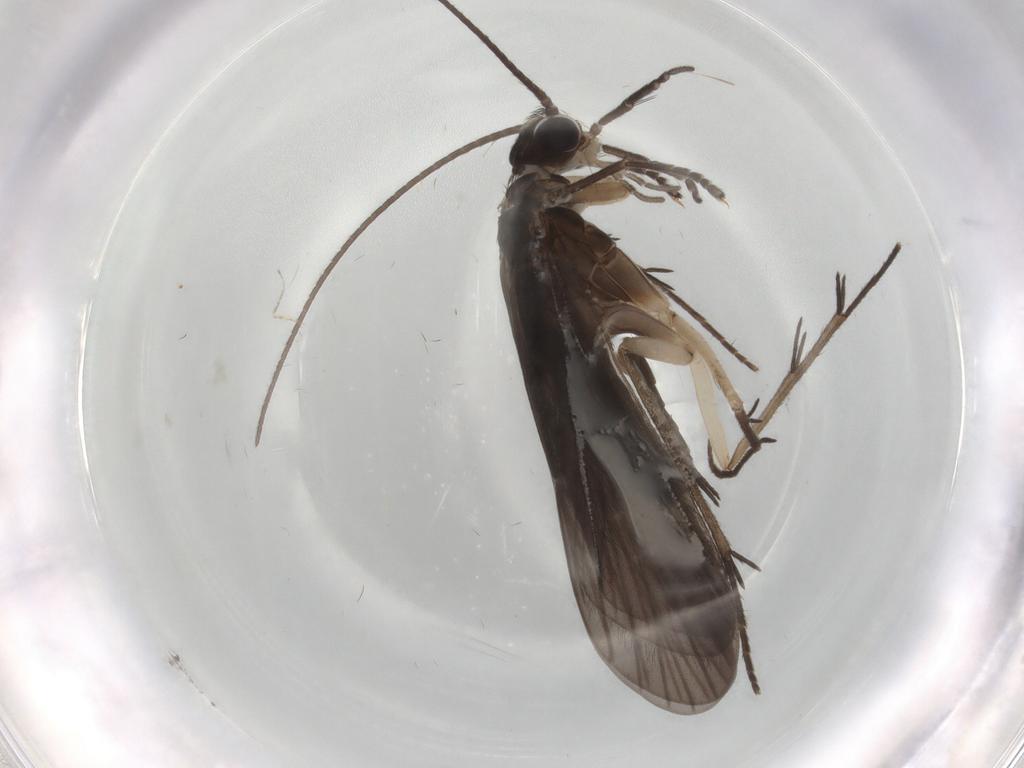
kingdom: Animalia
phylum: Arthropoda
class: Insecta
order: Trichoptera
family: Philopotamidae
